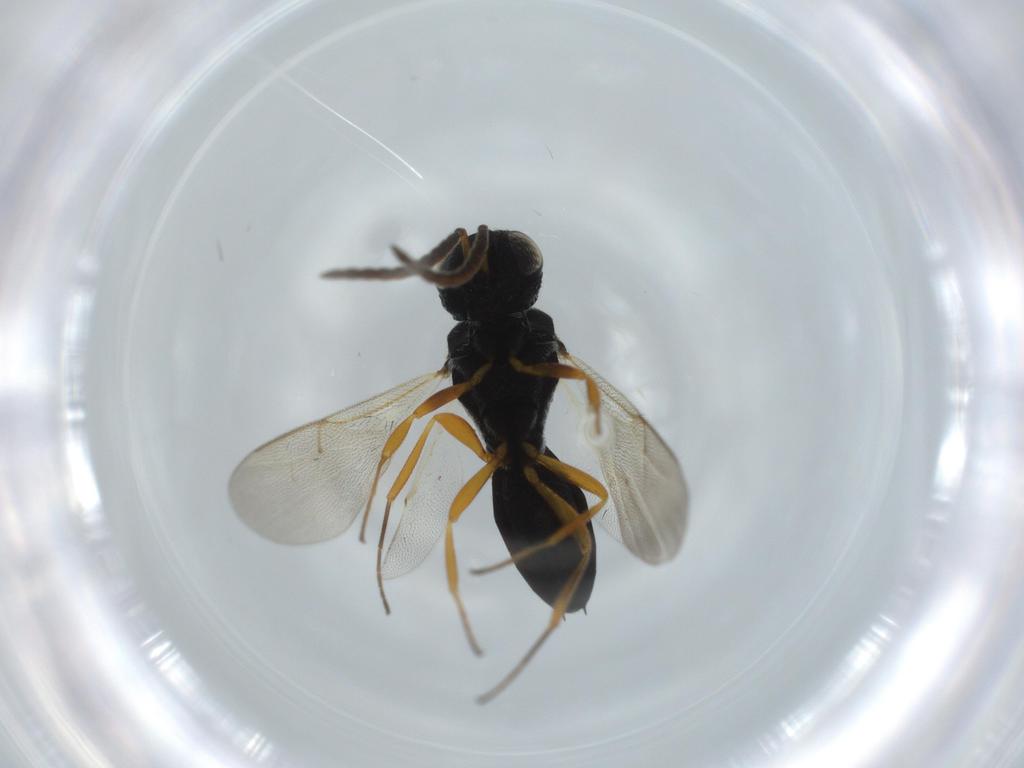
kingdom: Animalia
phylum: Arthropoda
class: Insecta
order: Hymenoptera
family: Scelionidae
